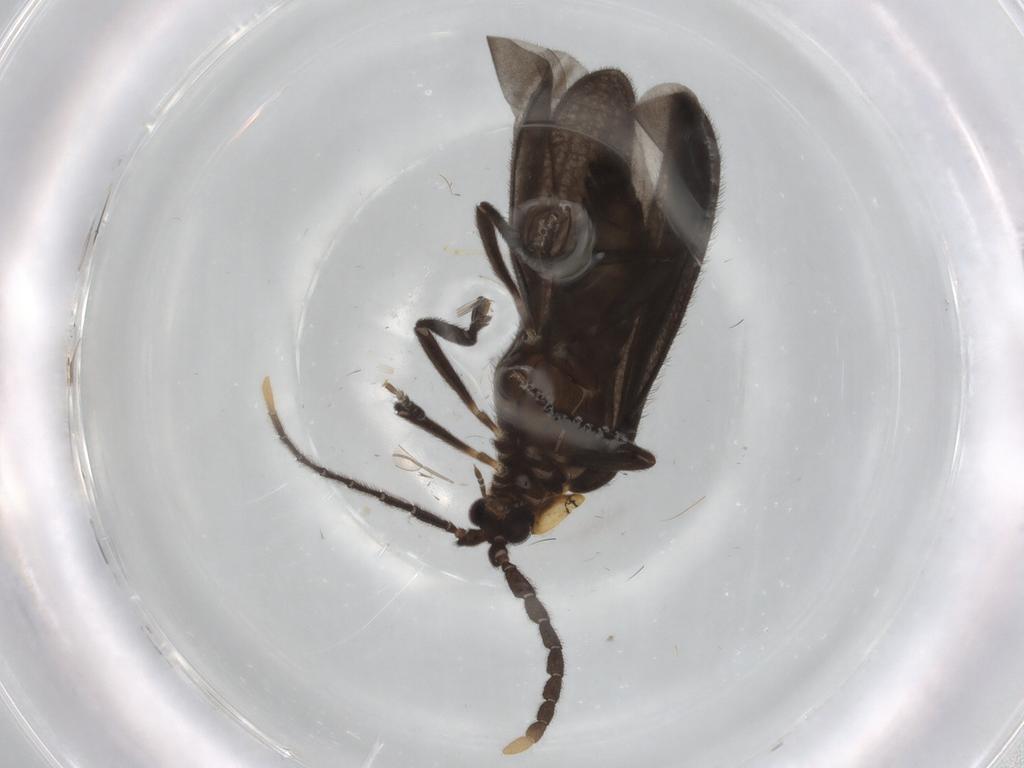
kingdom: Animalia
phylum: Arthropoda
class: Insecta
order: Coleoptera
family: Lycidae
